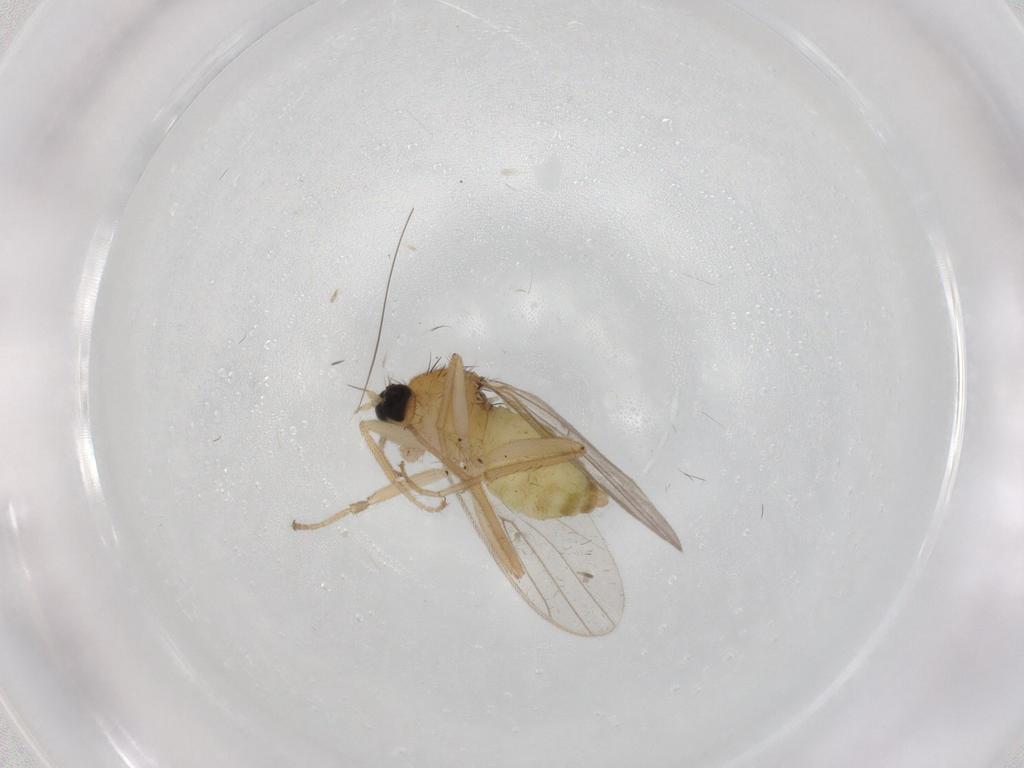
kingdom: Animalia
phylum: Arthropoda
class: Insecta
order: Diptera
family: Hybotidae
